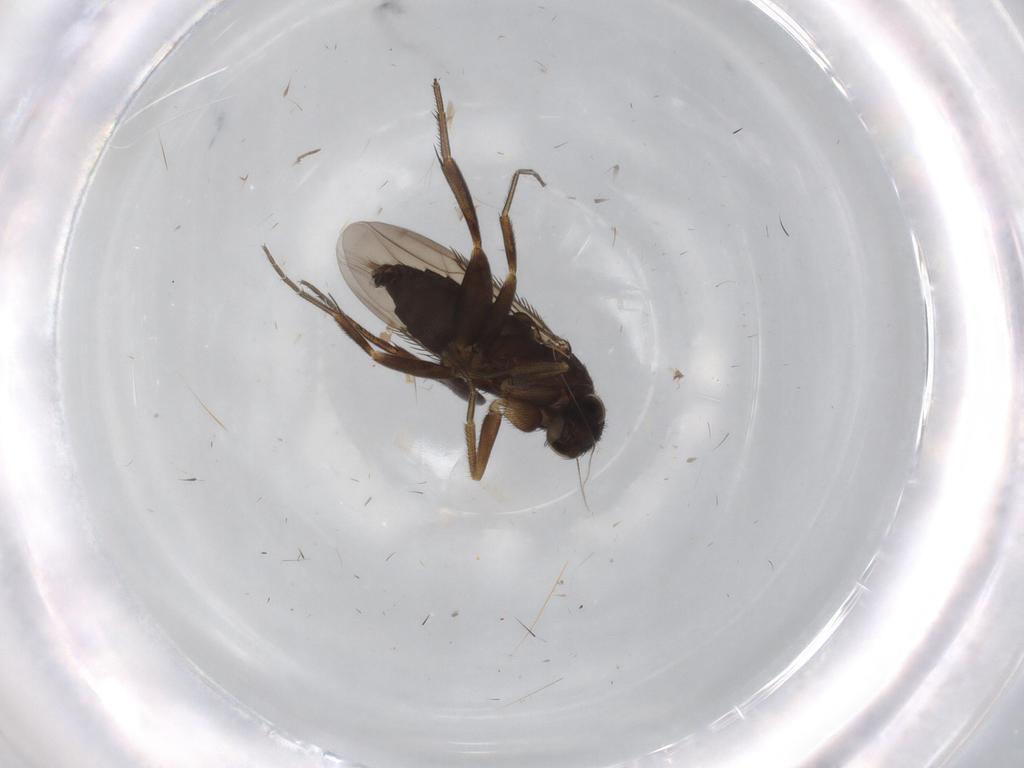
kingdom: Animalia
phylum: Arthropoda
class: Insecta
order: Diptera
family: Phoridae
